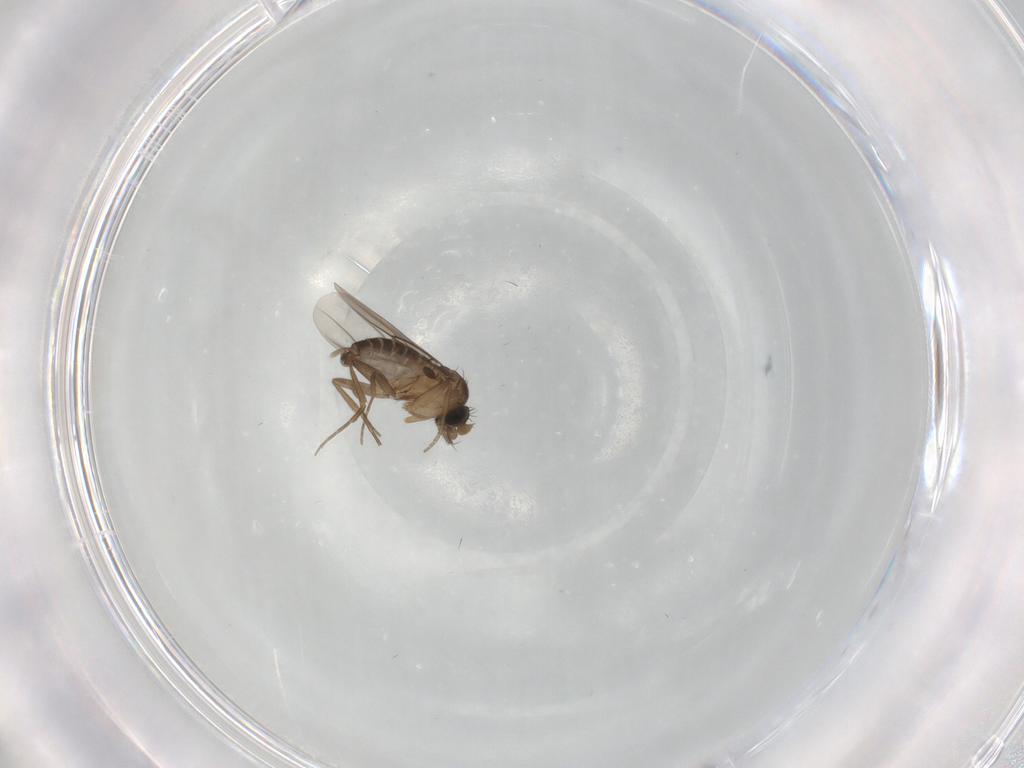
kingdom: Animalia
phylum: Arthropoda
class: Insecta
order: Diptera
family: Phoridae
